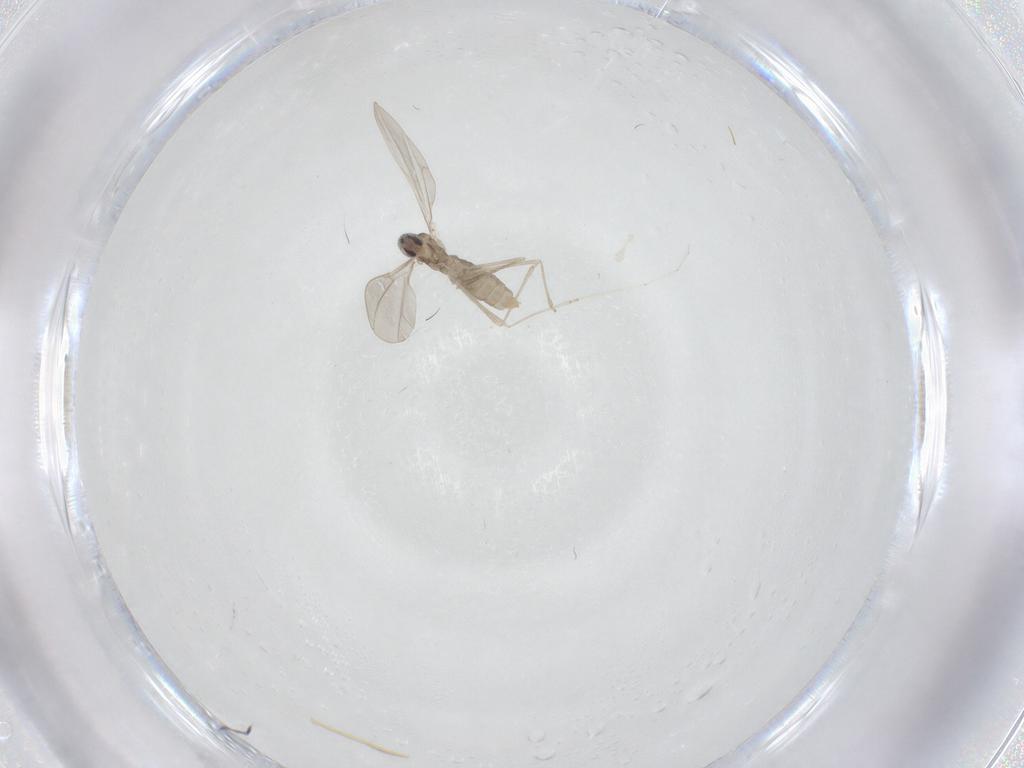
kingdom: Animalia
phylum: Arthropoda
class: Insecta
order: Diptera
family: Cecidomyiidae
